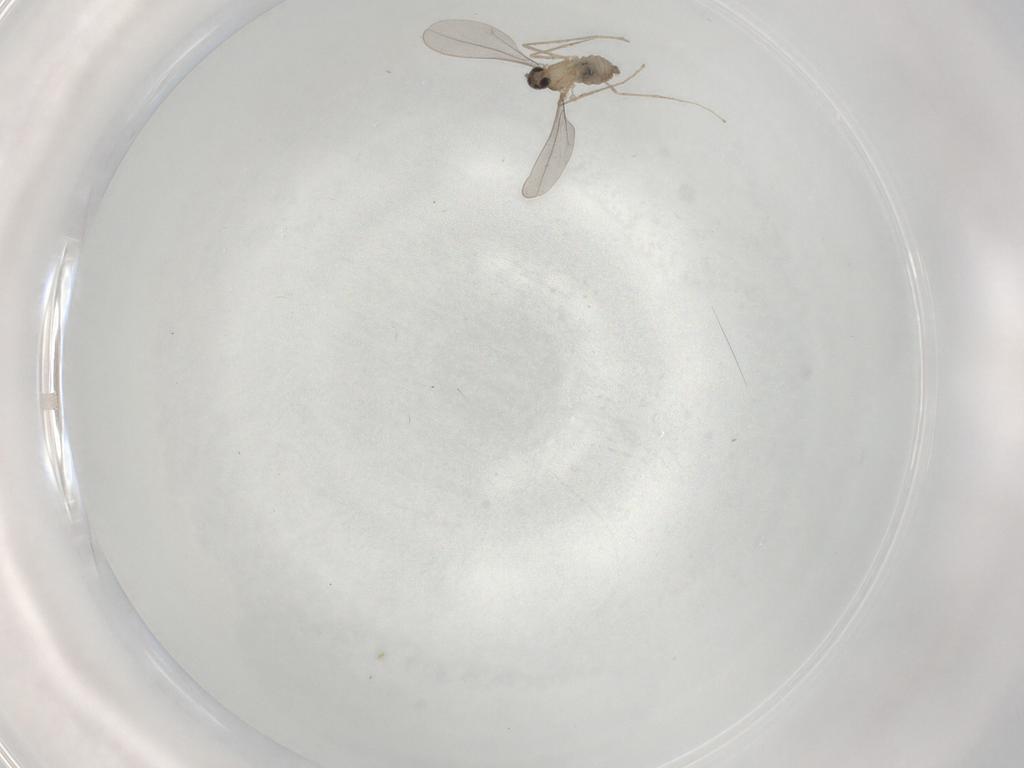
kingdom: Animalia
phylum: Arthropoda
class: Insecta
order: Diptera
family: Cecidomyiidae
